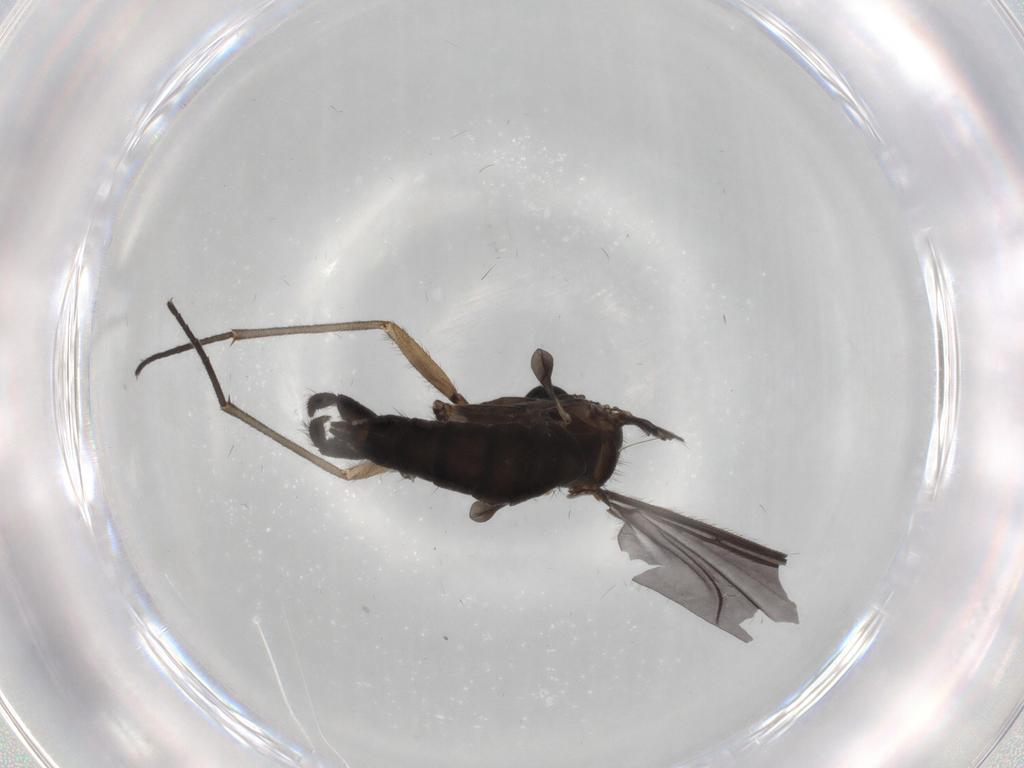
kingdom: Animalia
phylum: Arthropoda
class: Insecta
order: Diptera
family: Sciaridae
